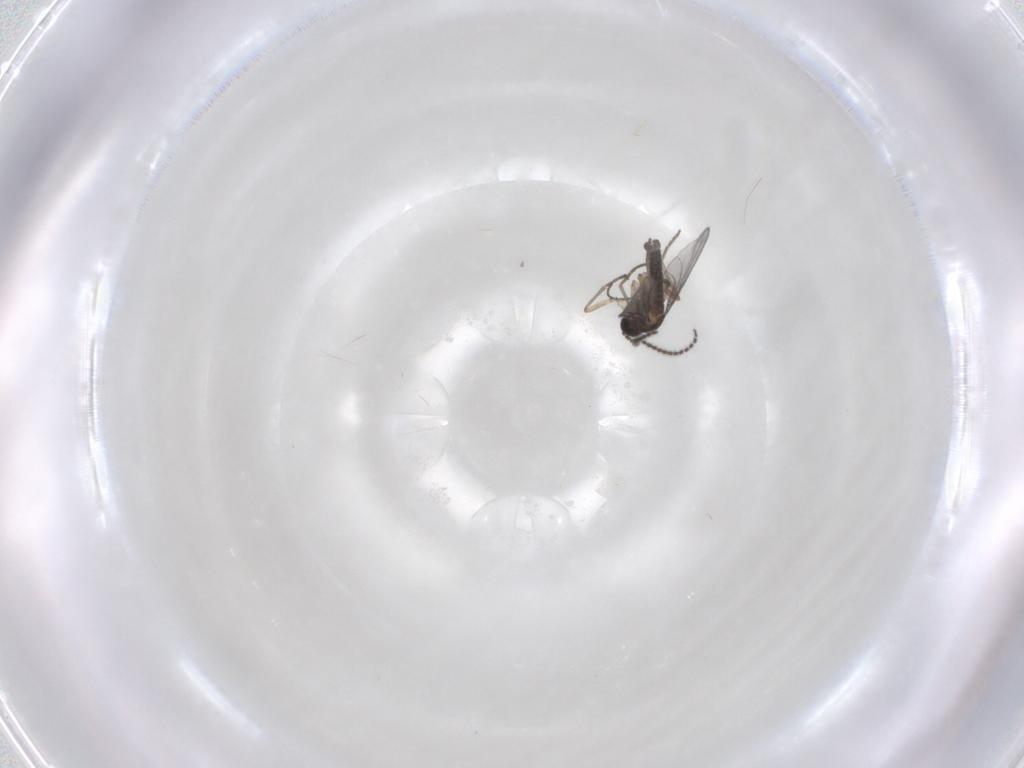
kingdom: Animalia
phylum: Arthropoda
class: Insecta
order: Diptera
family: Sciaridae
